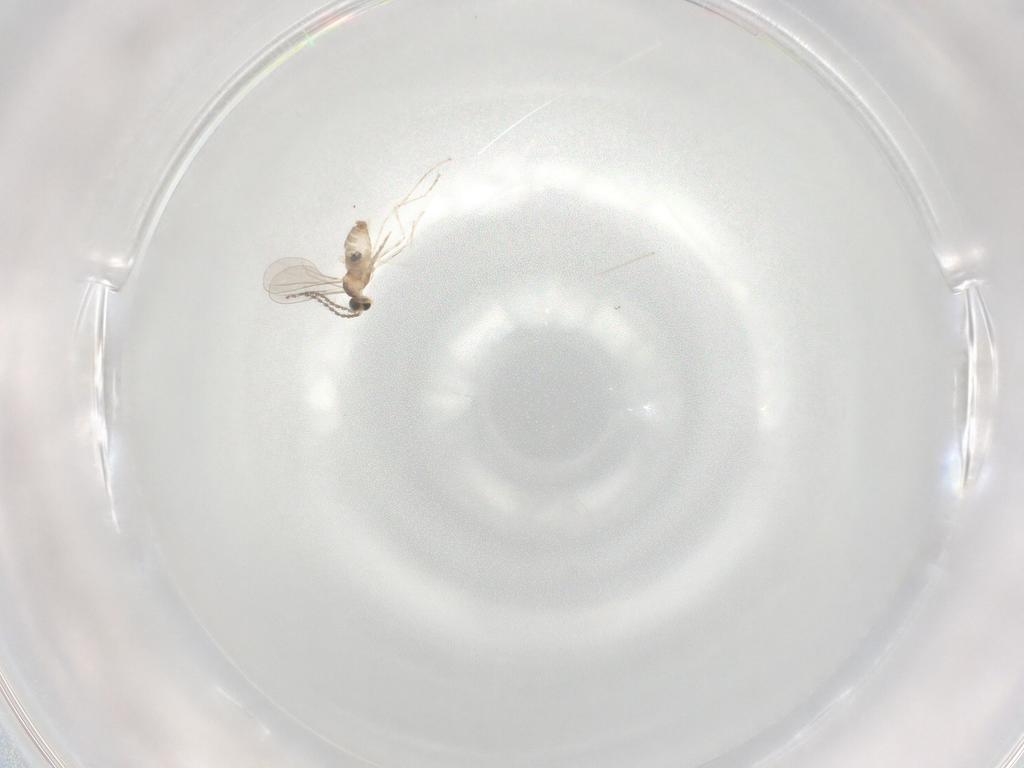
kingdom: Animalia
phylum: Arthropoda
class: Insecta
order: Diptera
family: Cecidomyiidae
